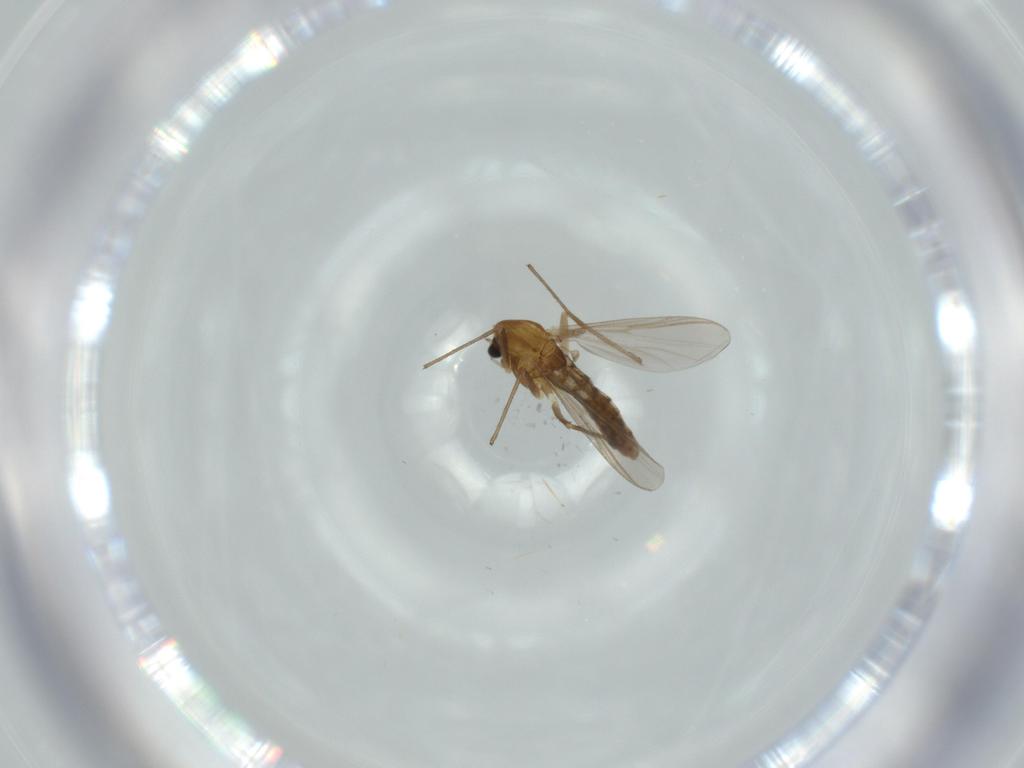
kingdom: Animalia
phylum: Arthropoda
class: Insecta
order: Diptera
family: Chironomidae
